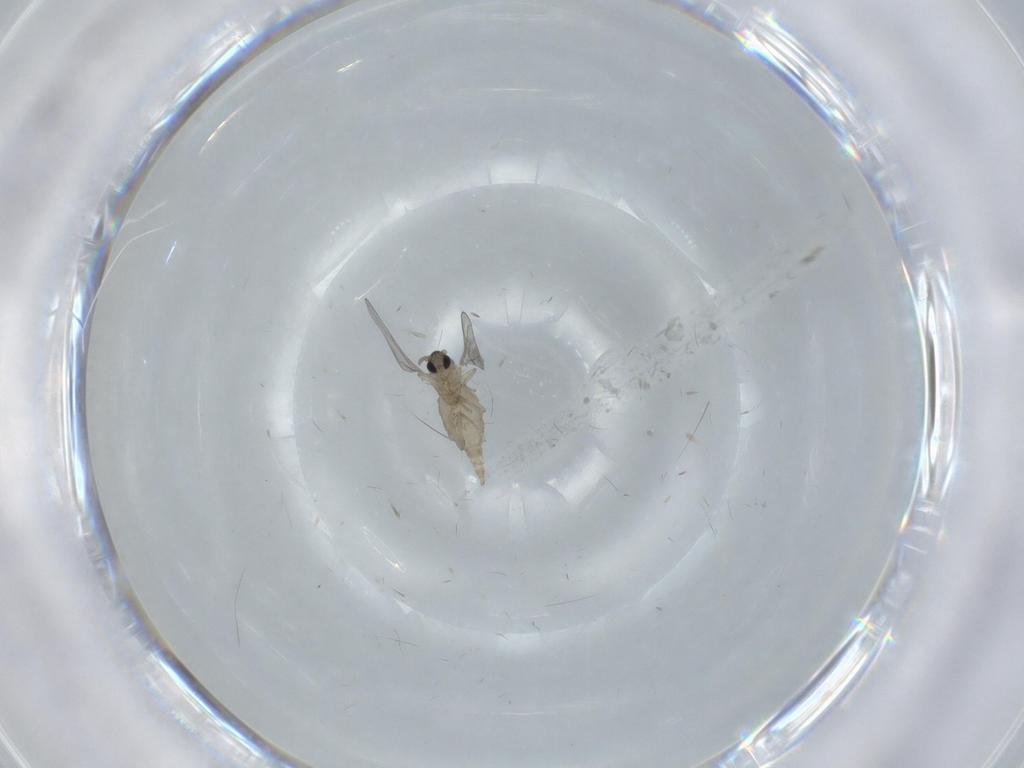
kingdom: Animalia
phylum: Arthropoda
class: Insecta
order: Diptera
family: Cecidomyiidae
